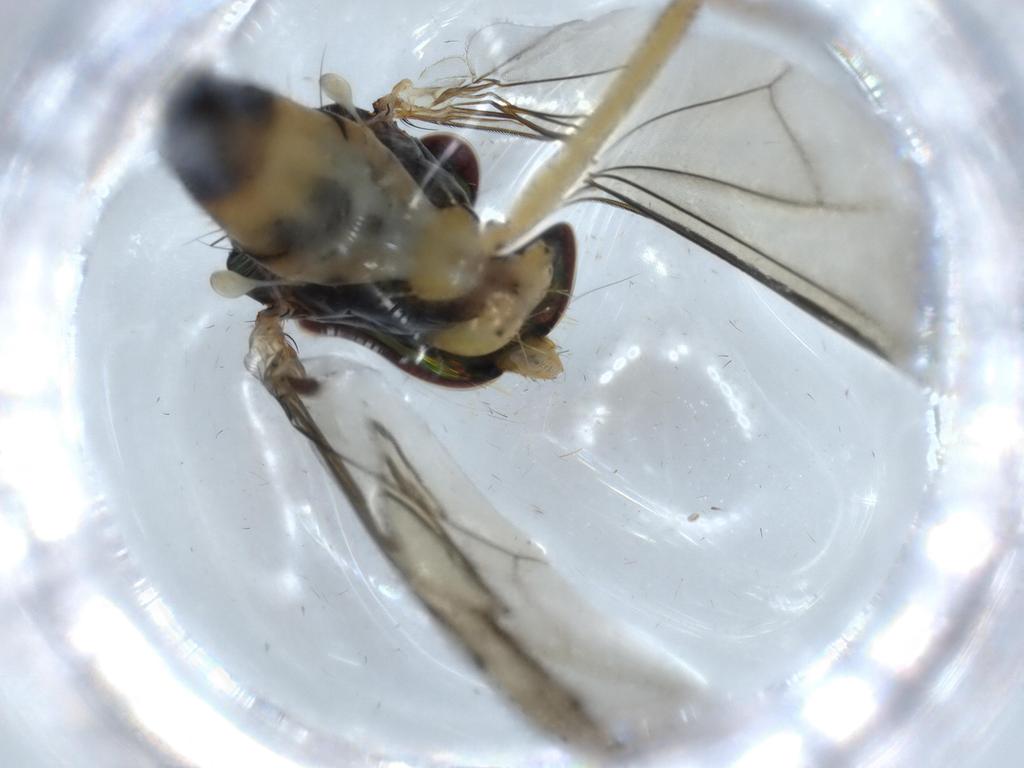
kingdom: Animalia
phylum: Arthropoda
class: Insecta
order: Diptera
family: Dolichopodidae
